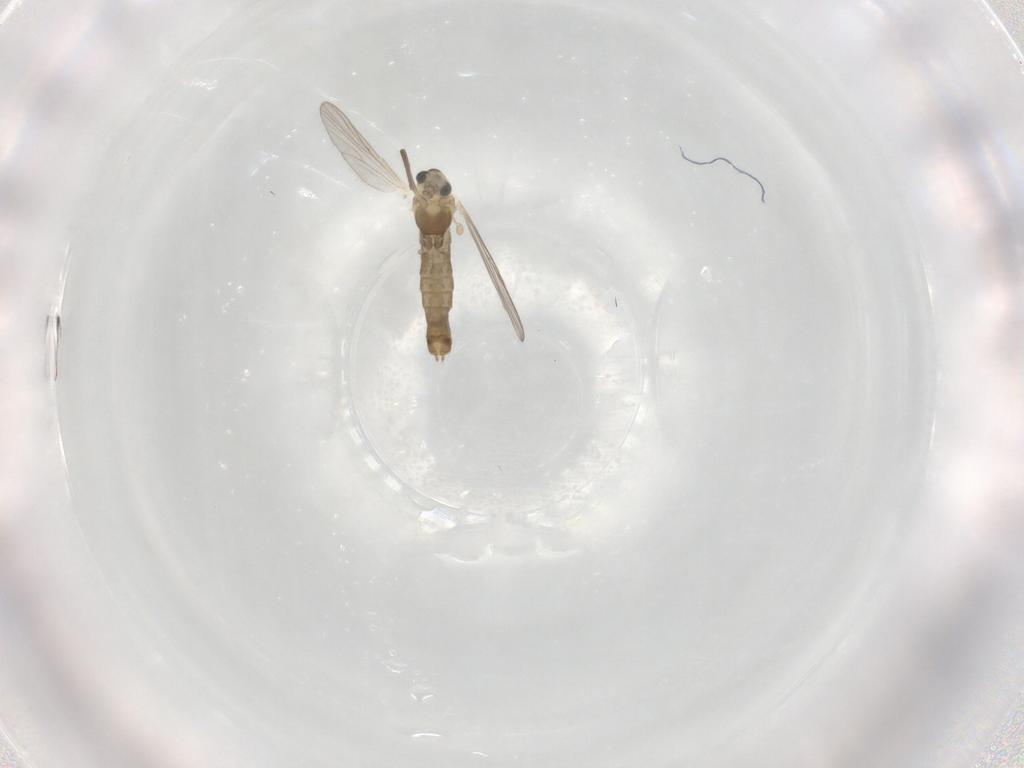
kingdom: Animalia
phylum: Arthropoda
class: Insecta
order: Diptera
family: Chironomidae
